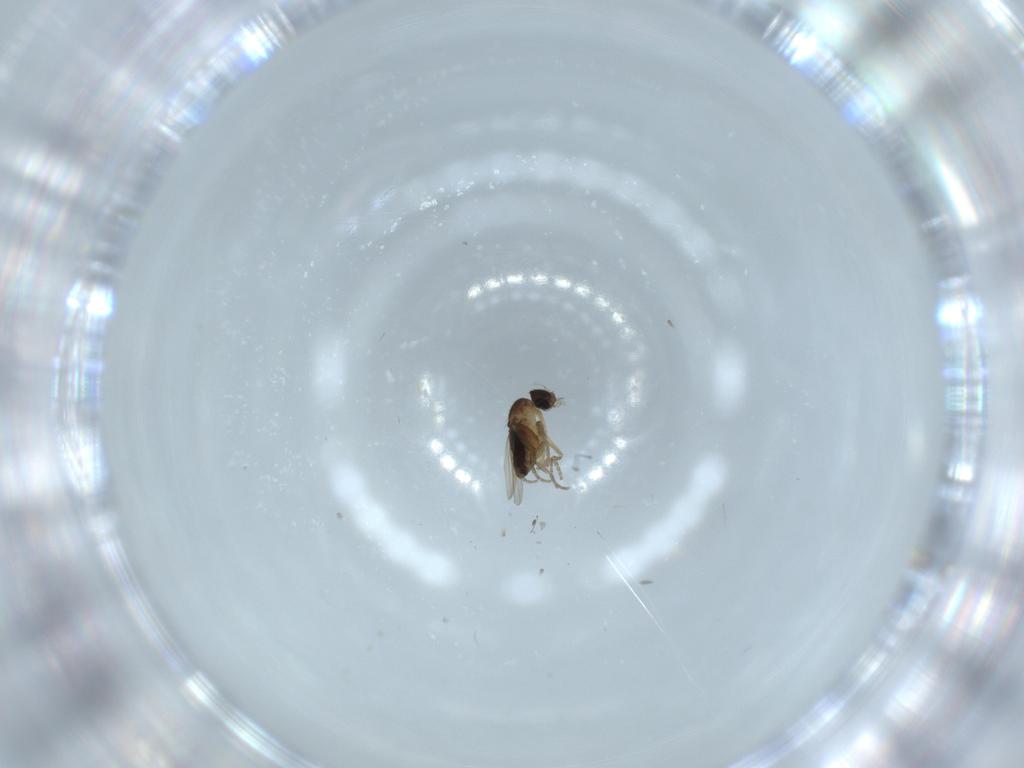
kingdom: Animalia
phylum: Arthropoda
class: Insecta
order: Diptera
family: Phoridae
